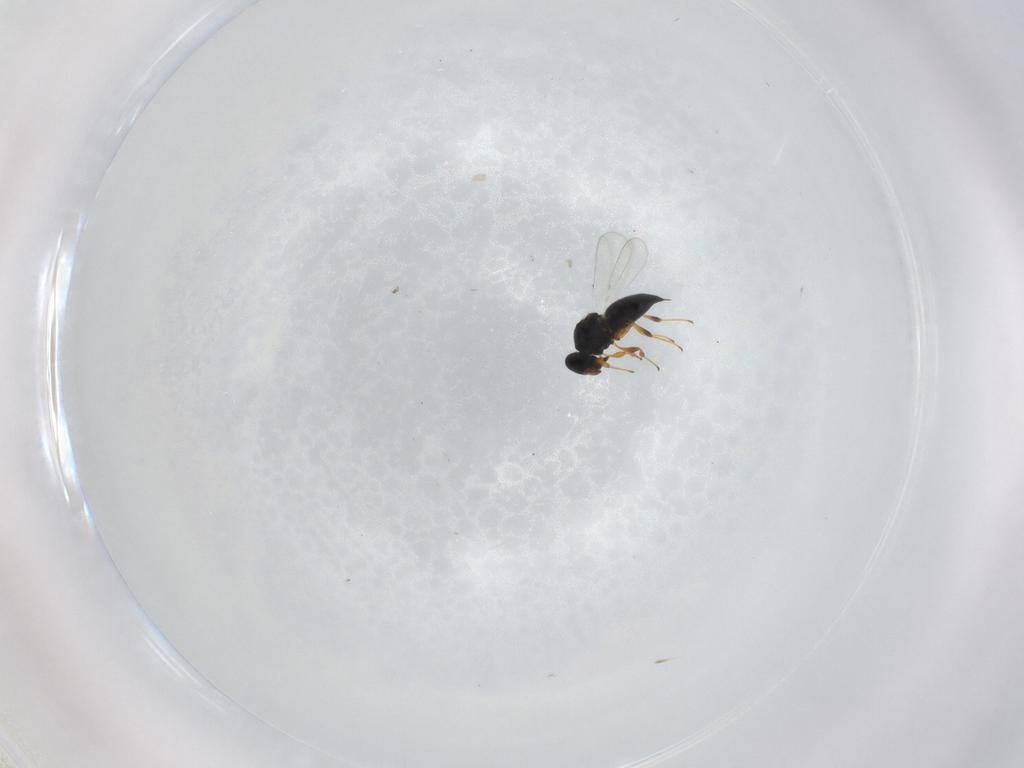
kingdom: Animalia
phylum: Arthropoda
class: Insecta
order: Hymenoptera
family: Platygastridae
